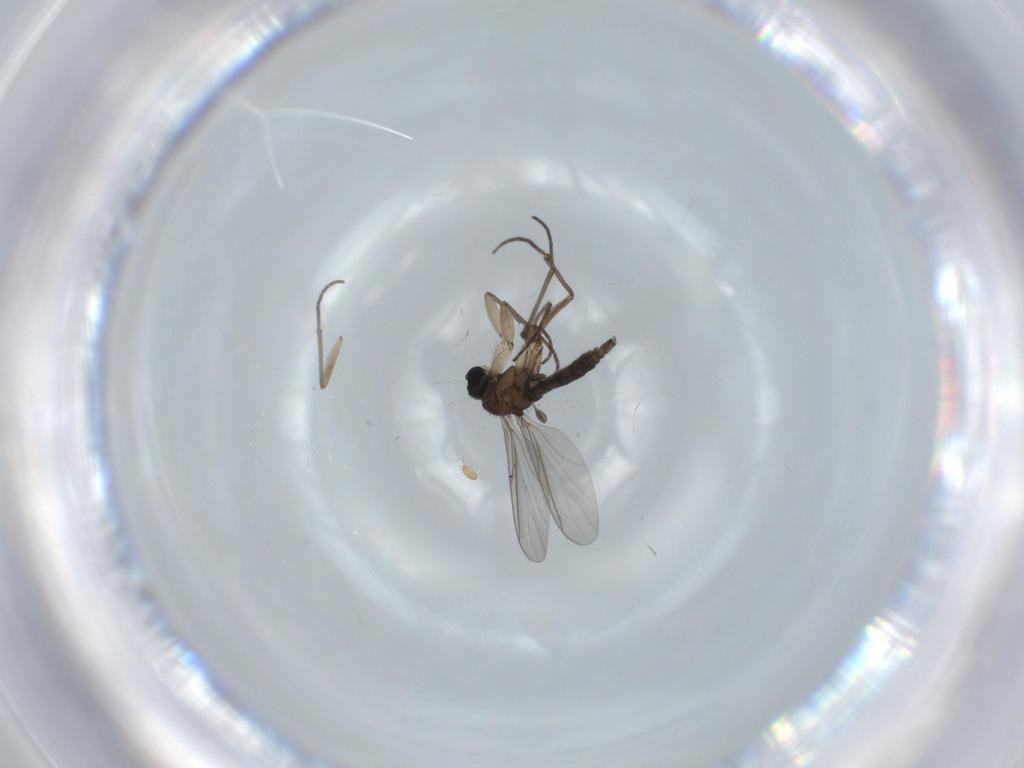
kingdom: Animalia
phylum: Arthropoda
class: Insecta
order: Diptera
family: Sciaridae
